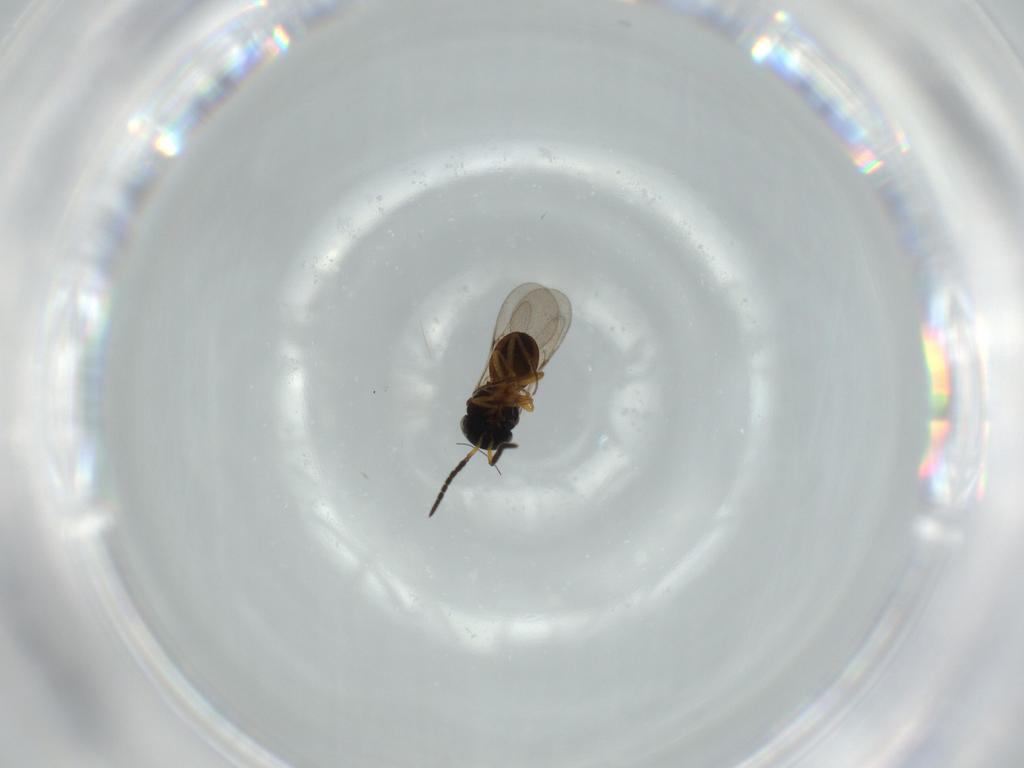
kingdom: Animalia
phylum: Arthropoda
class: Insecta
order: Hymenoptera
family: Scelionidae
